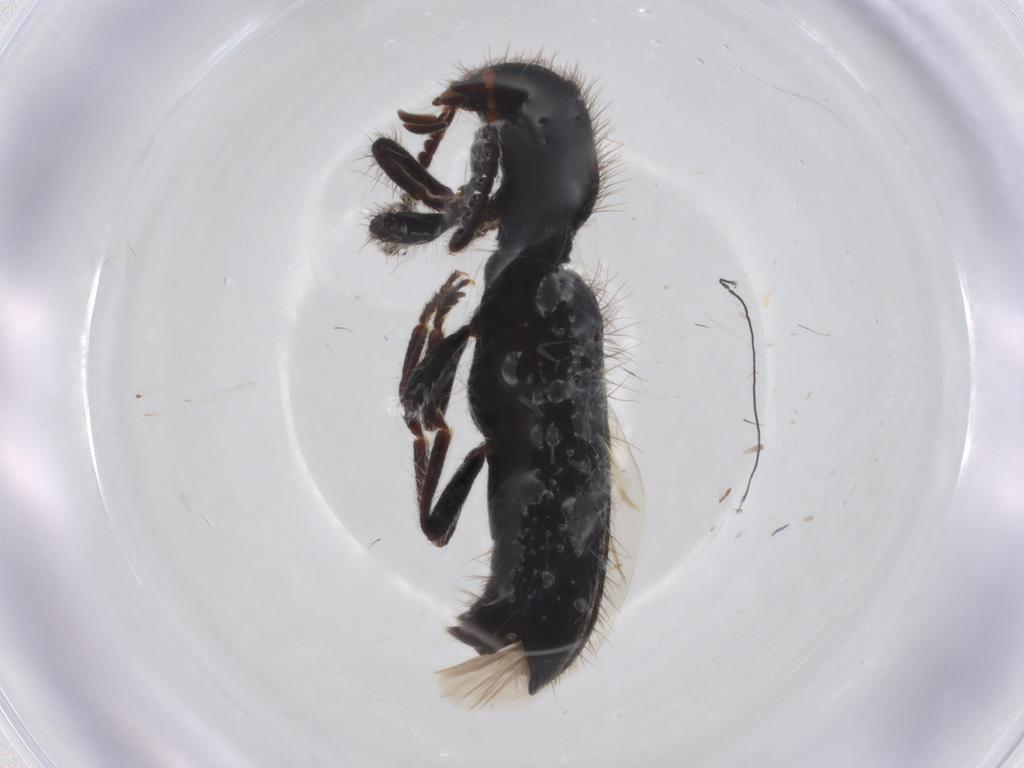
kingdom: Animalia
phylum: Arthropoda
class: Insecta
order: Coleoptera
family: Cleridae
